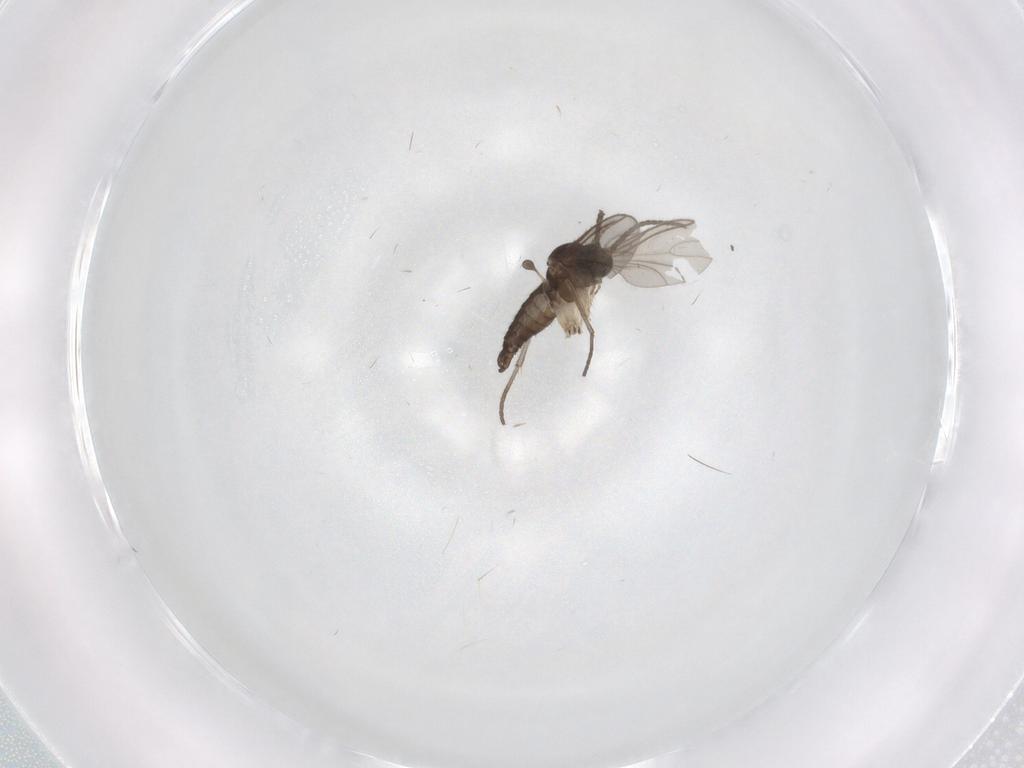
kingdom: Animalia
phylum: Arthropoda
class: Insecta
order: Diptera
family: Sciaridae
